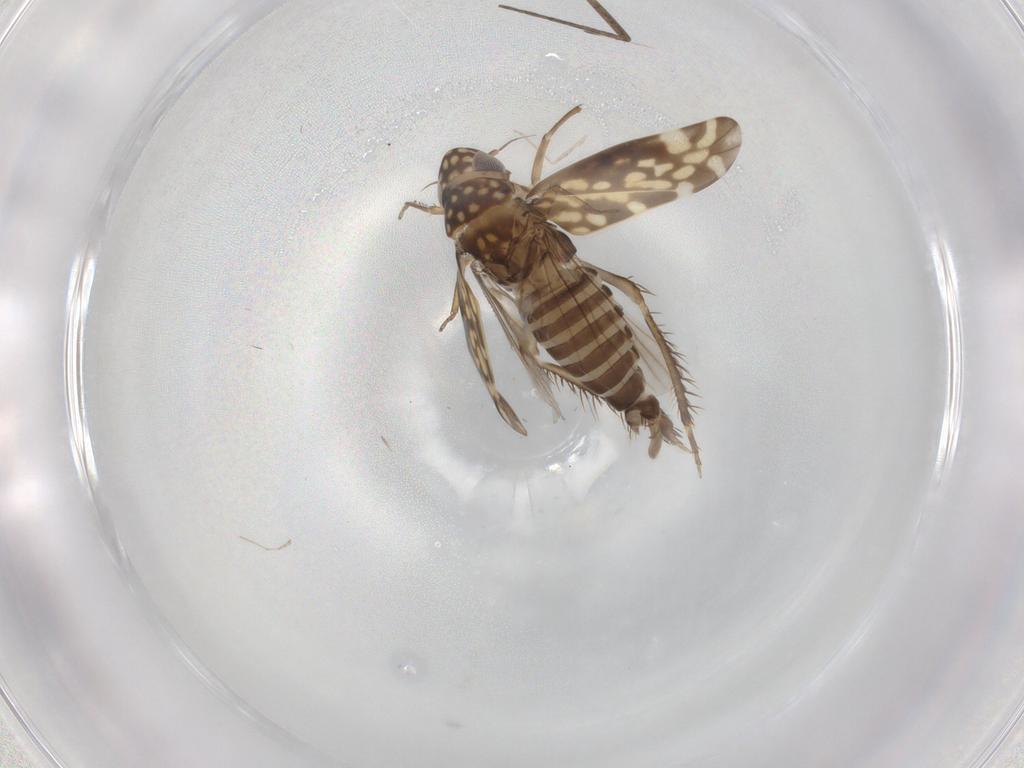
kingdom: Animalia
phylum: Arthropoda
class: Insecta
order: Hemiptera
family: Cicadellidae
